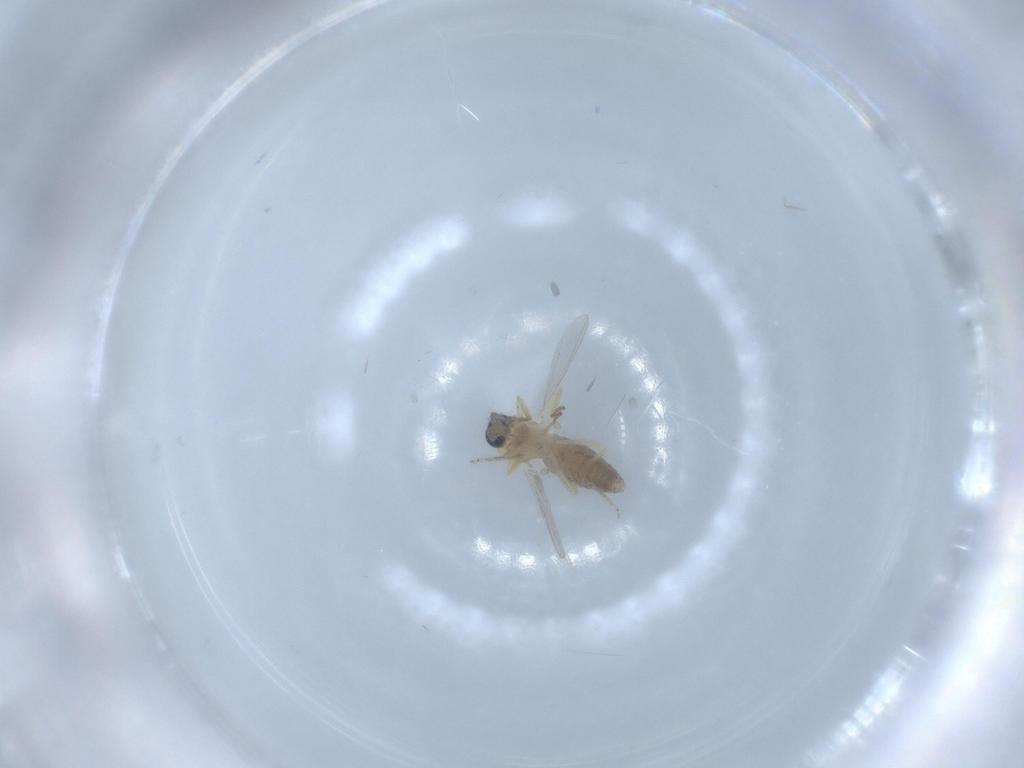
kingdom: Animalia
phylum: Arthropoda
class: Insecta
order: Diptera
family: Ceratopogonidae
